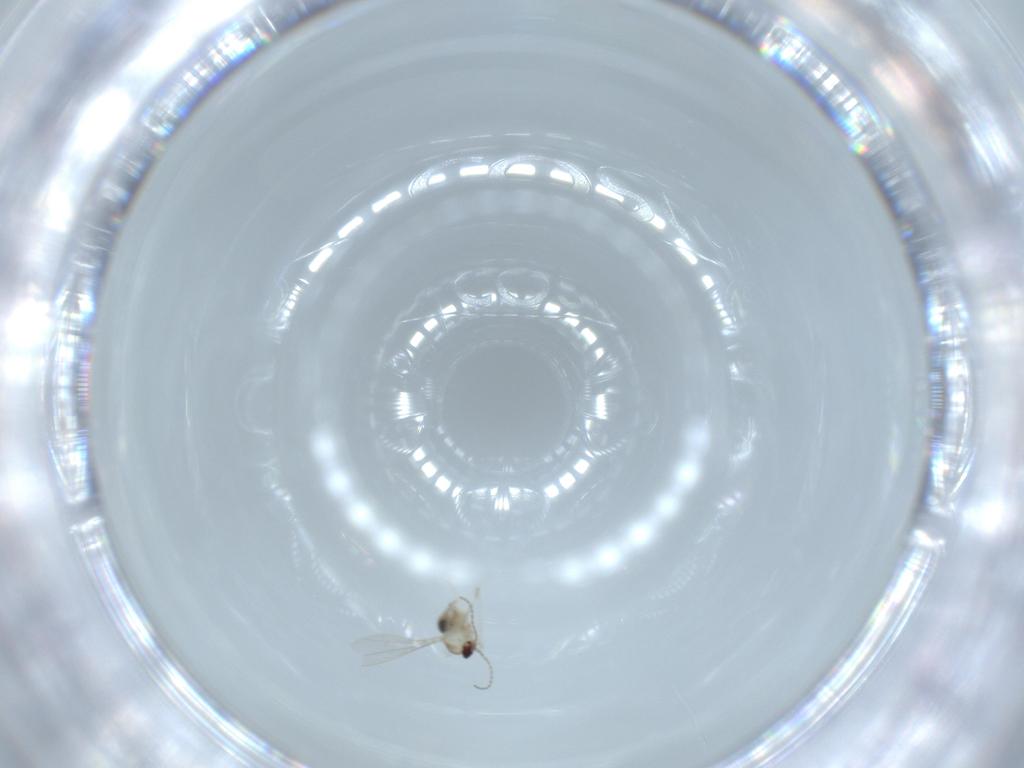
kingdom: Animalia
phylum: Arthropoda
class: Insecta
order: Diptera
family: Cecidomyiidae
